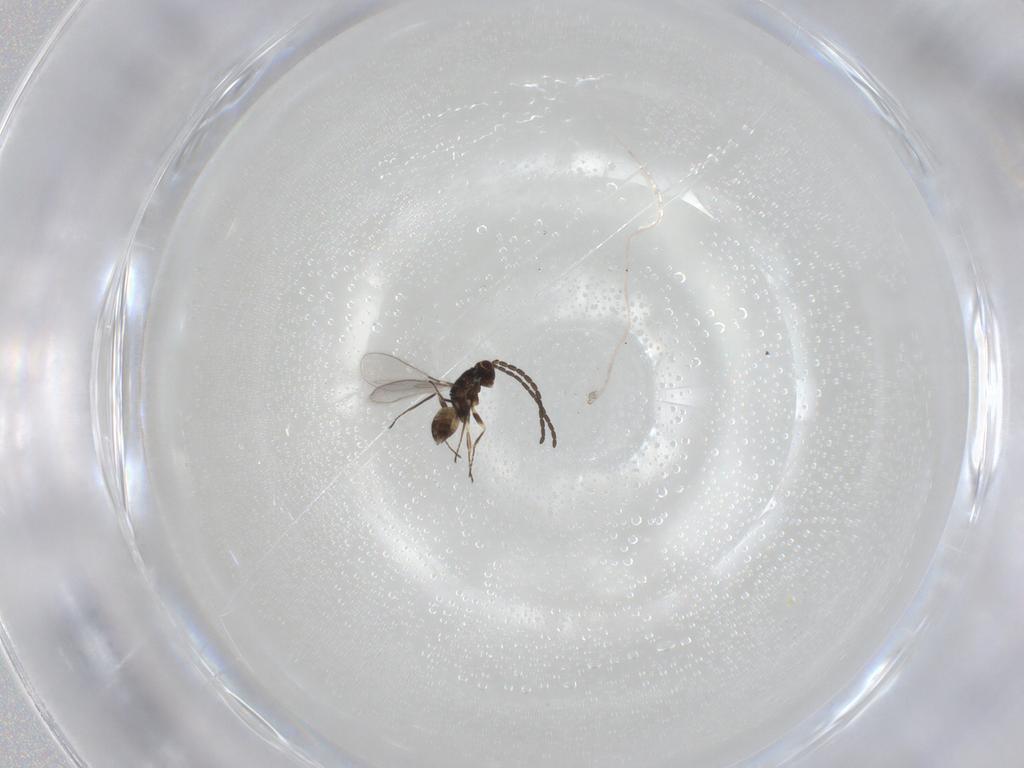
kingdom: Animalia
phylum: Arthropoda
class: Insecta
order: Hymenoptera
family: Mymaridae
